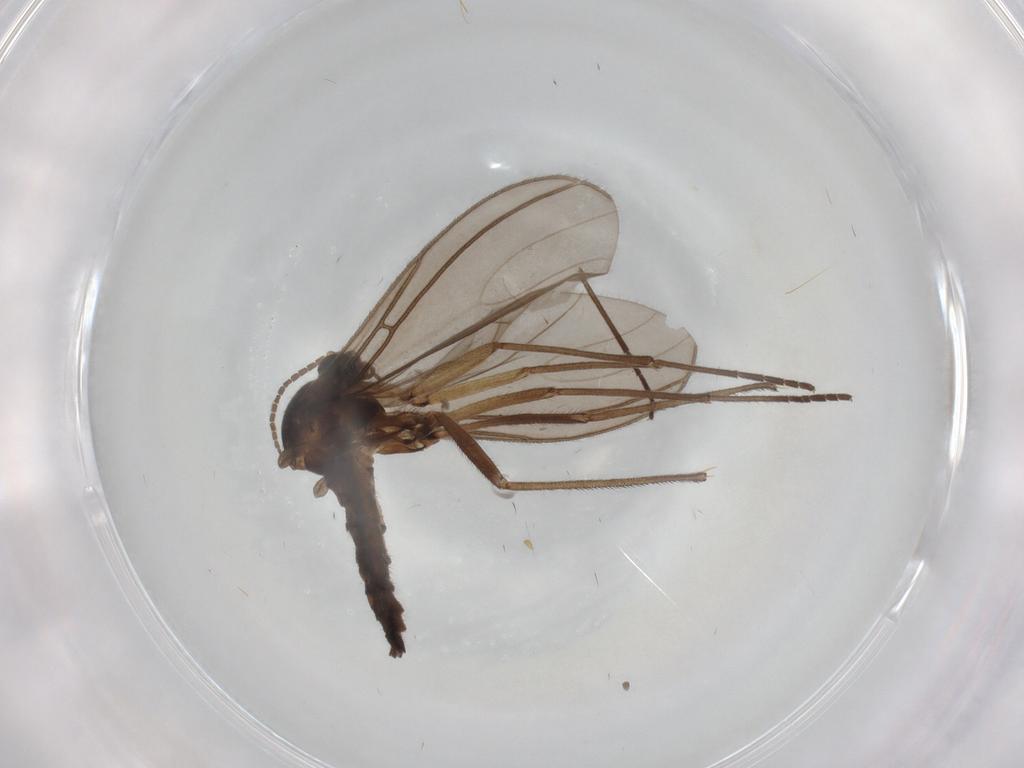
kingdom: Animalia
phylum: Arthropoda
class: Insecta
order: Diptera
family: Sciaridae
